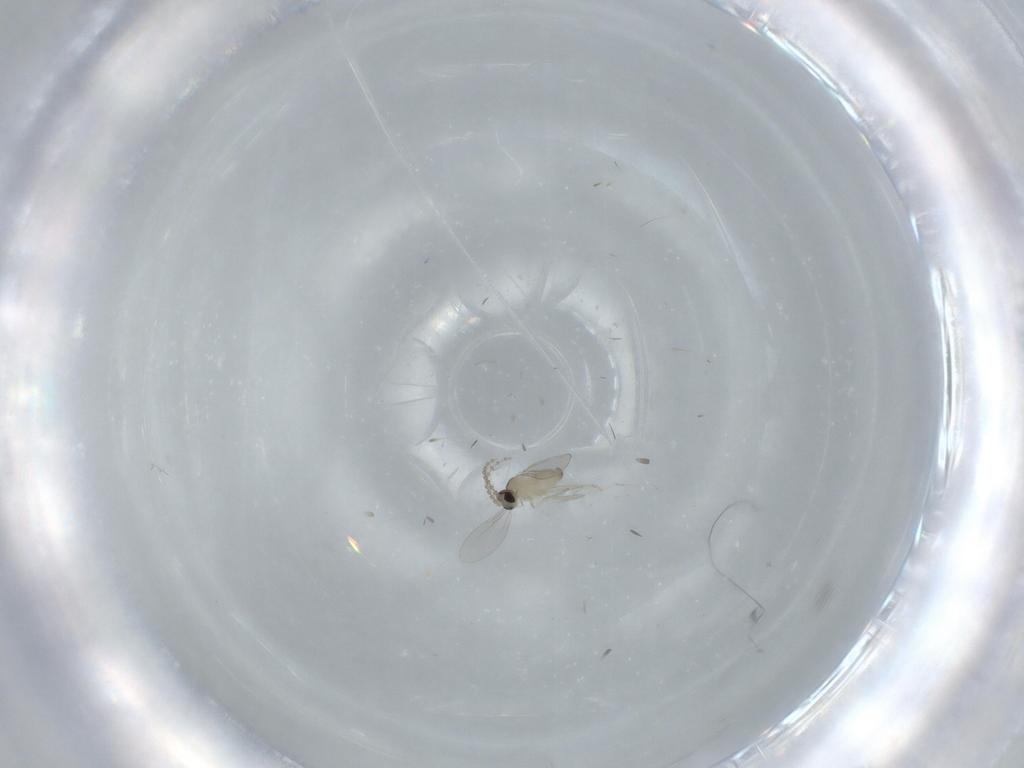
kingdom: Animalia
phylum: Arthropoda
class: Insecta
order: Diptera
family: Cecidomyiidae
